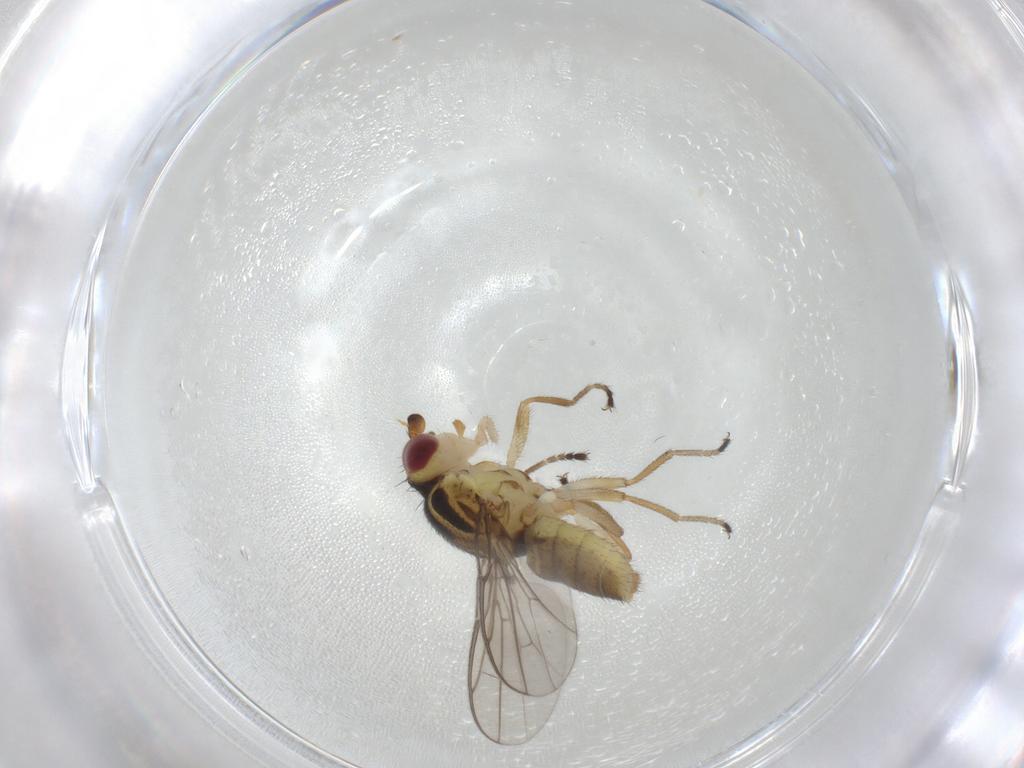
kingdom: Animalia
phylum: Arthropoda
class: Insecta
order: Diptera
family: Chloropidae
